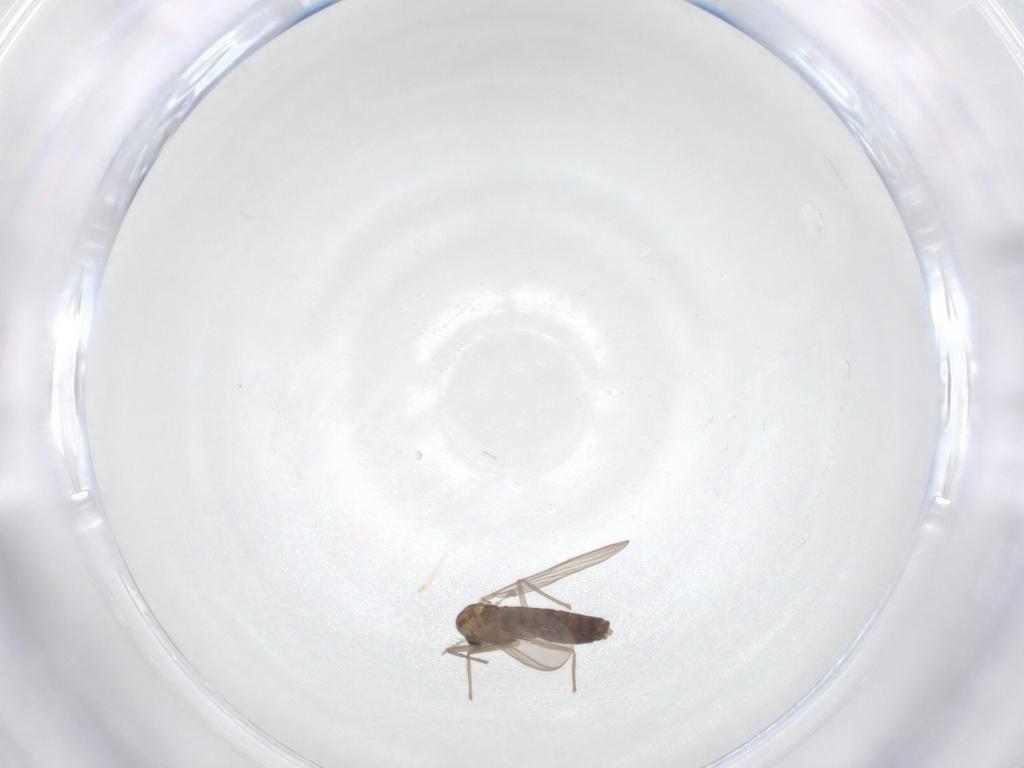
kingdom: Animalia
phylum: Arthropoda
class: Insecta
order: Diptera
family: Chironomidae
